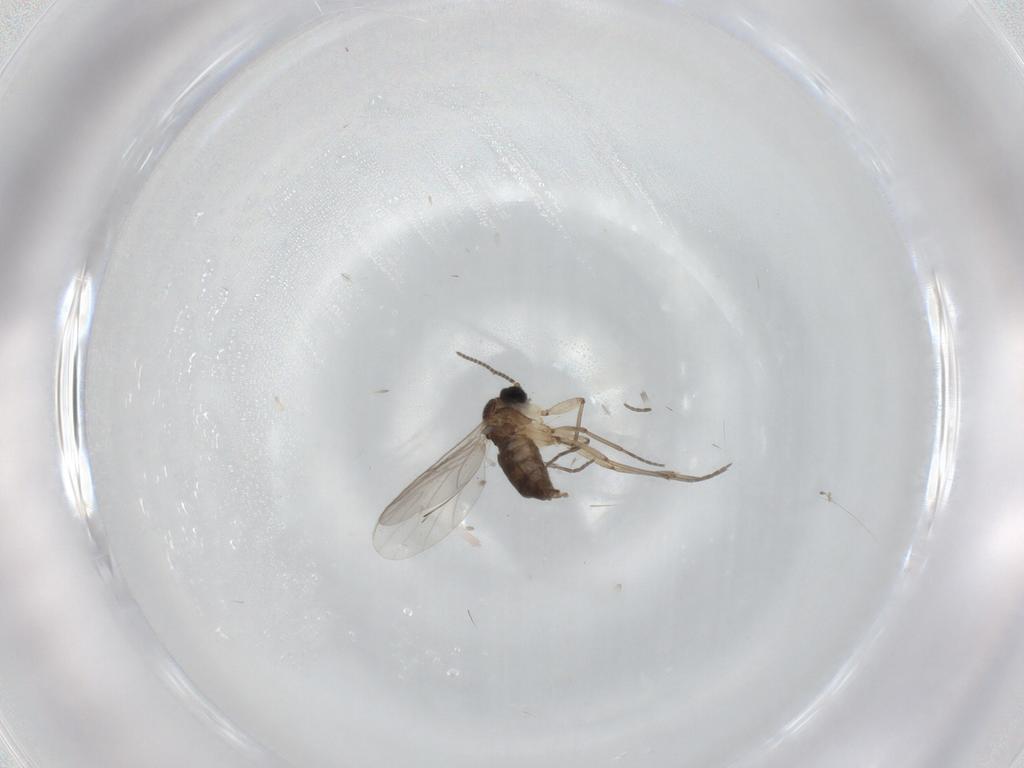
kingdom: Animalia
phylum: Arthropoda
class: Insecta
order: Diptera
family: Sciaridae
